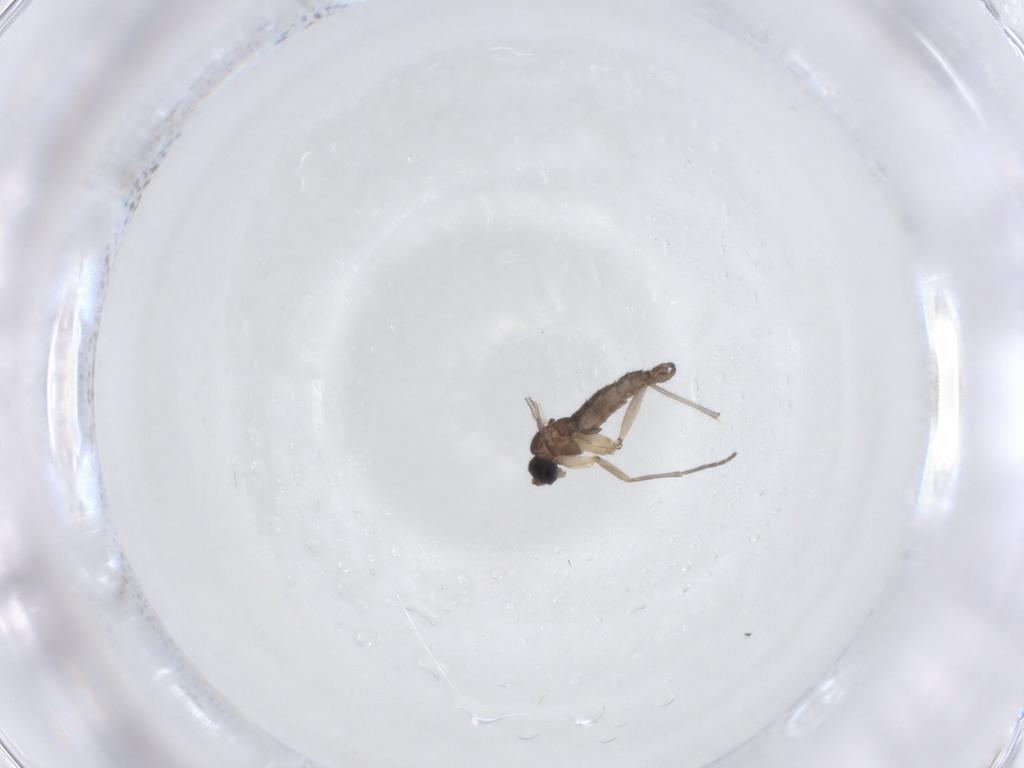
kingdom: Animalia
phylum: Arthropoda
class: Insecta
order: Diptera
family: Sciaridae
